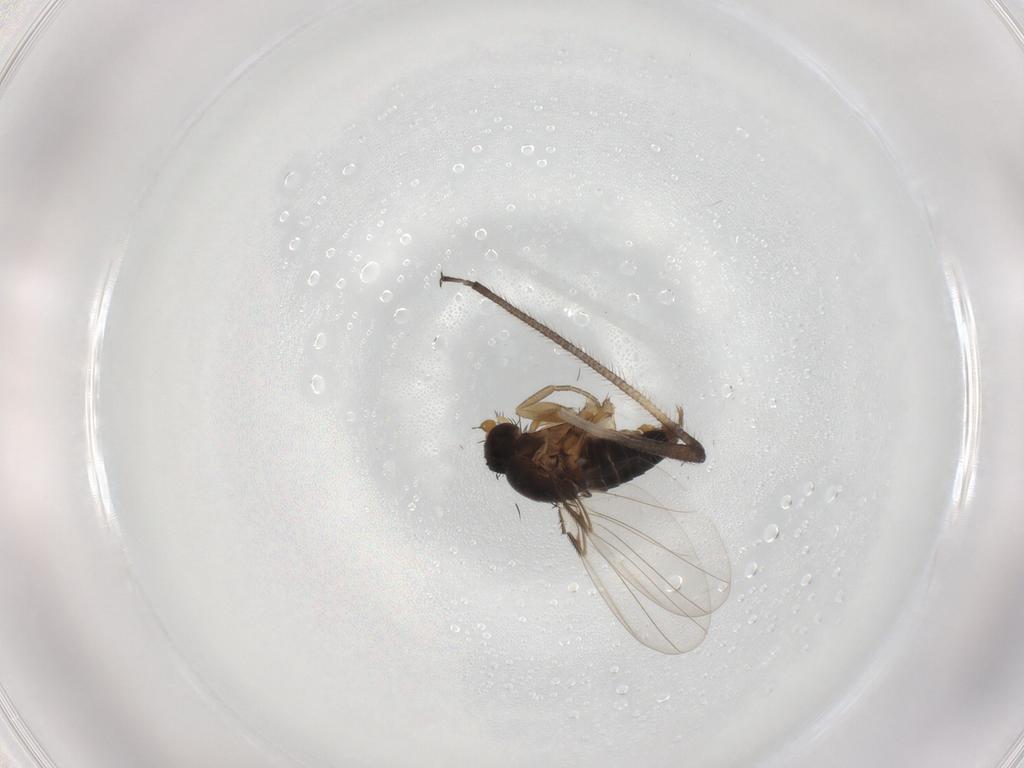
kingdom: Animalia
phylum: Arthropoda
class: Insecta
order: Diptera
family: Phoridae
